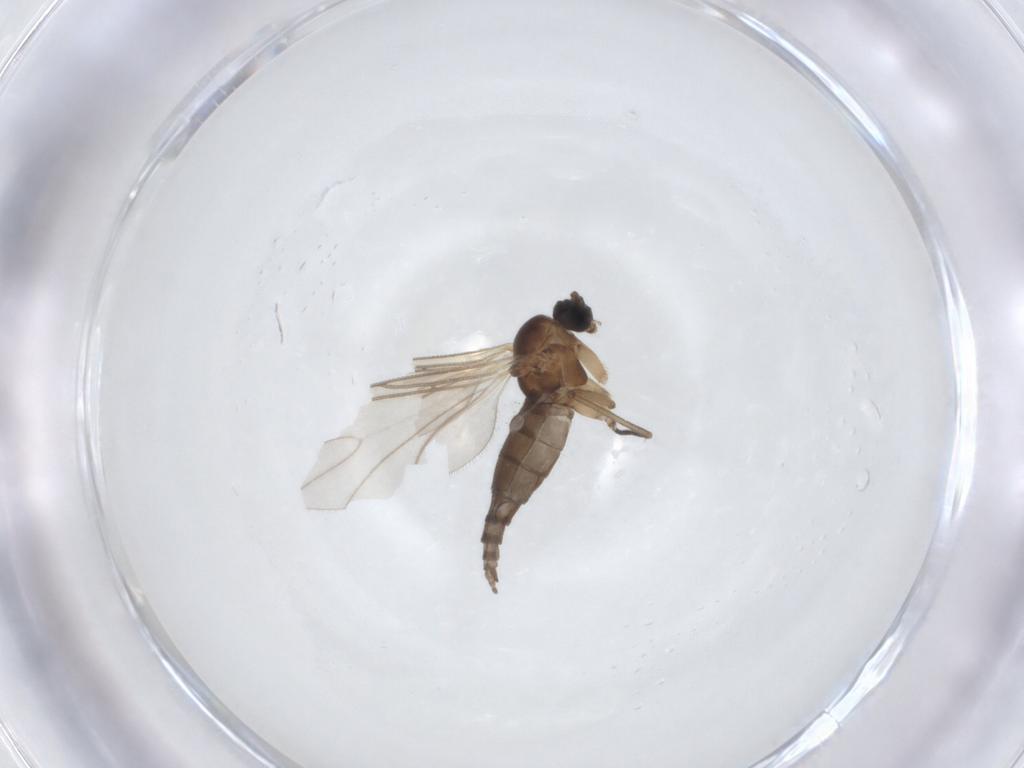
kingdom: Animalia
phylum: Arthropoda
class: Insecta
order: Diptera
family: Sciaridae
